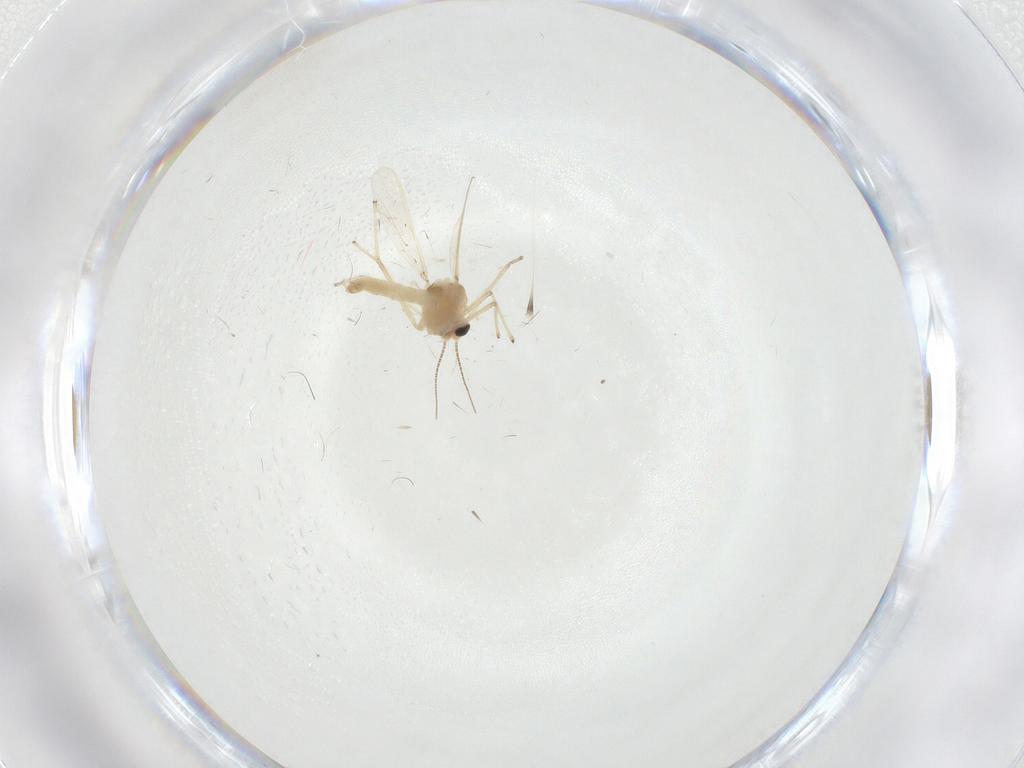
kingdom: Animalia
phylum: Arthropoda
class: Insecta
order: Diptera
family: Chironomidae
